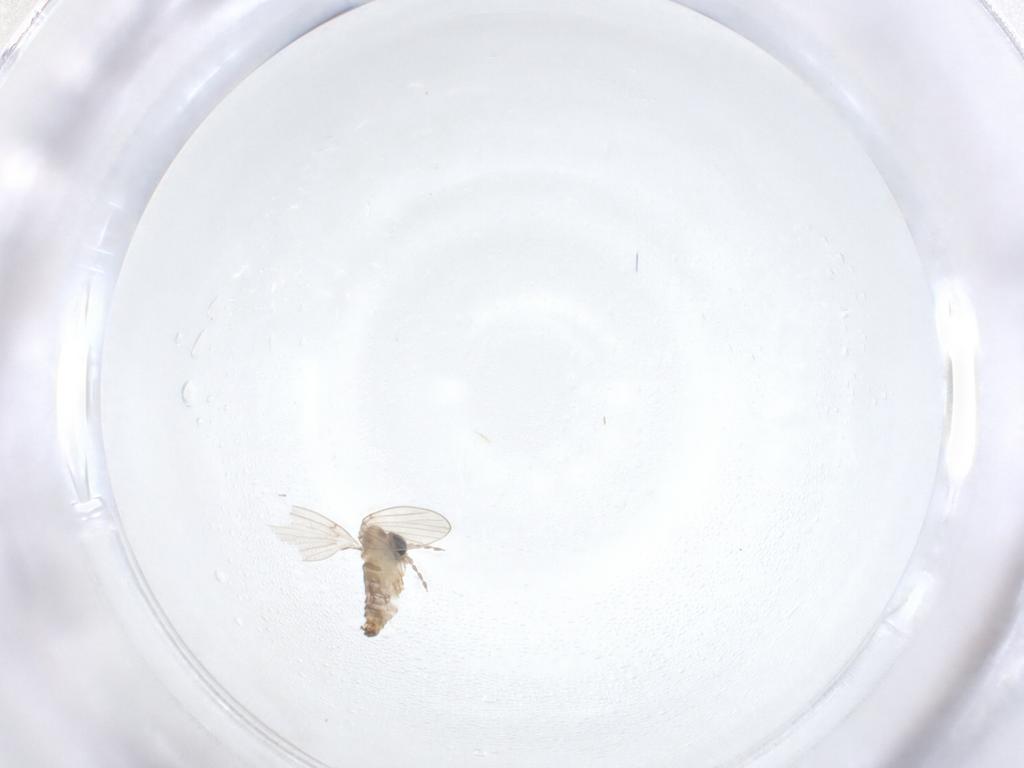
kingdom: Animalia
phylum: Arthropoda
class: Insecta
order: Diptera
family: Psychodidae
